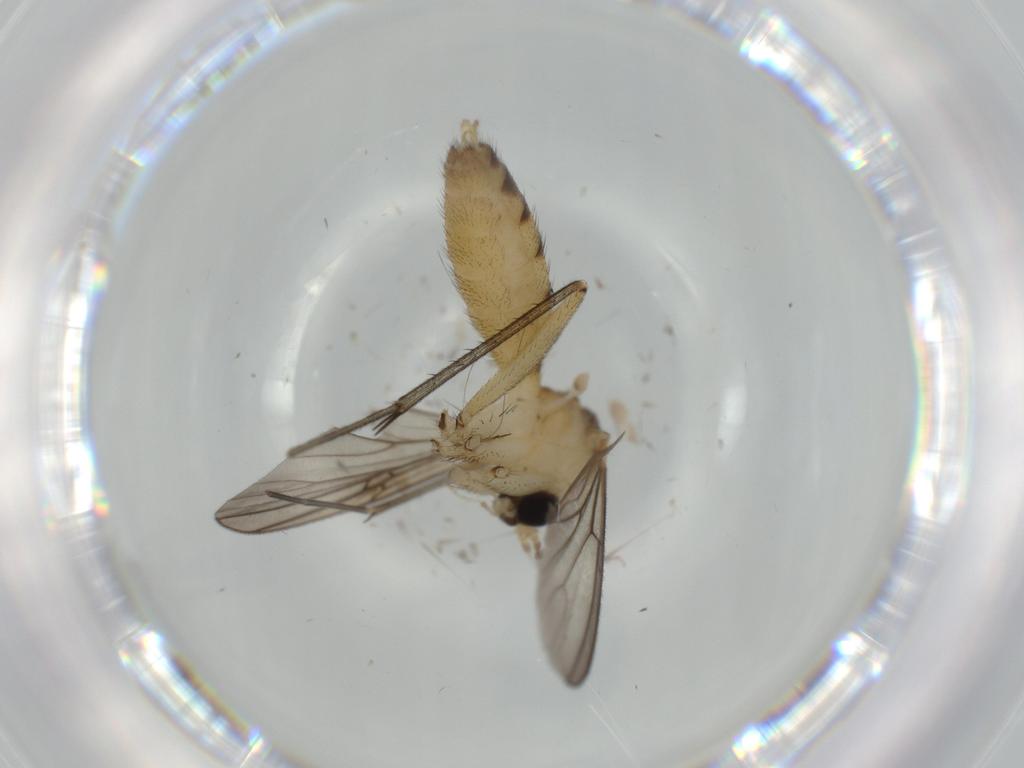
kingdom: Animalia
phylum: Arthropoda
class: Insecta
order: Diptera
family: Mycetophilidae
